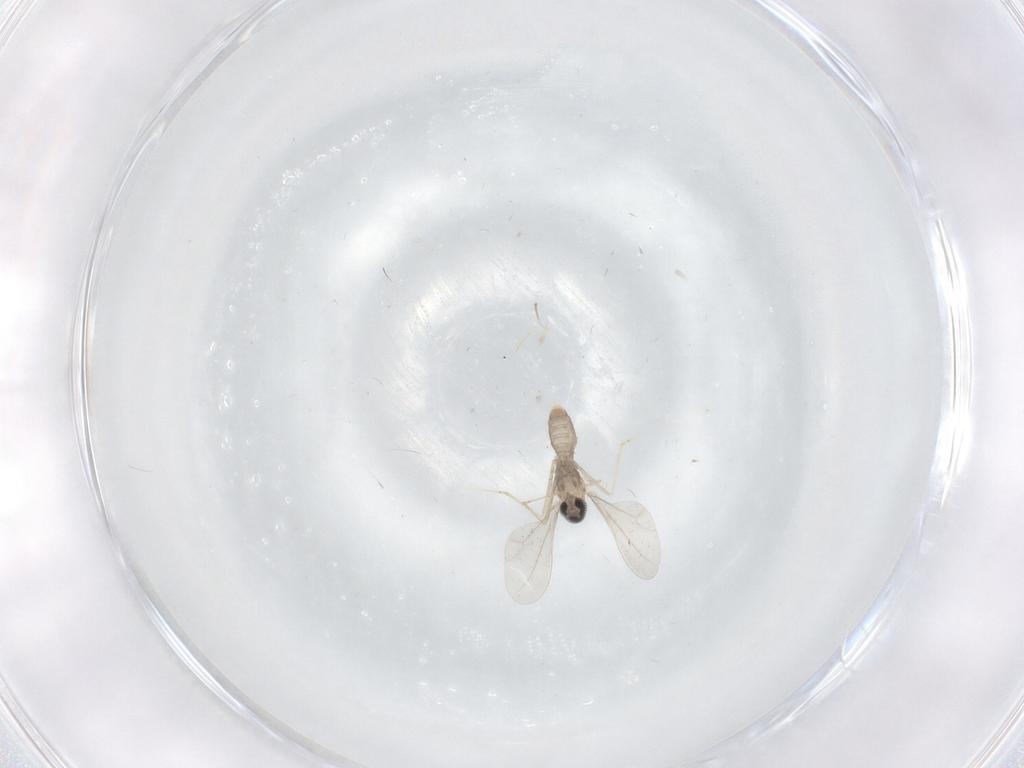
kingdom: Animalia
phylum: Arthropoda
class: Insecta
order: Diptera
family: Cecidomyiidae
